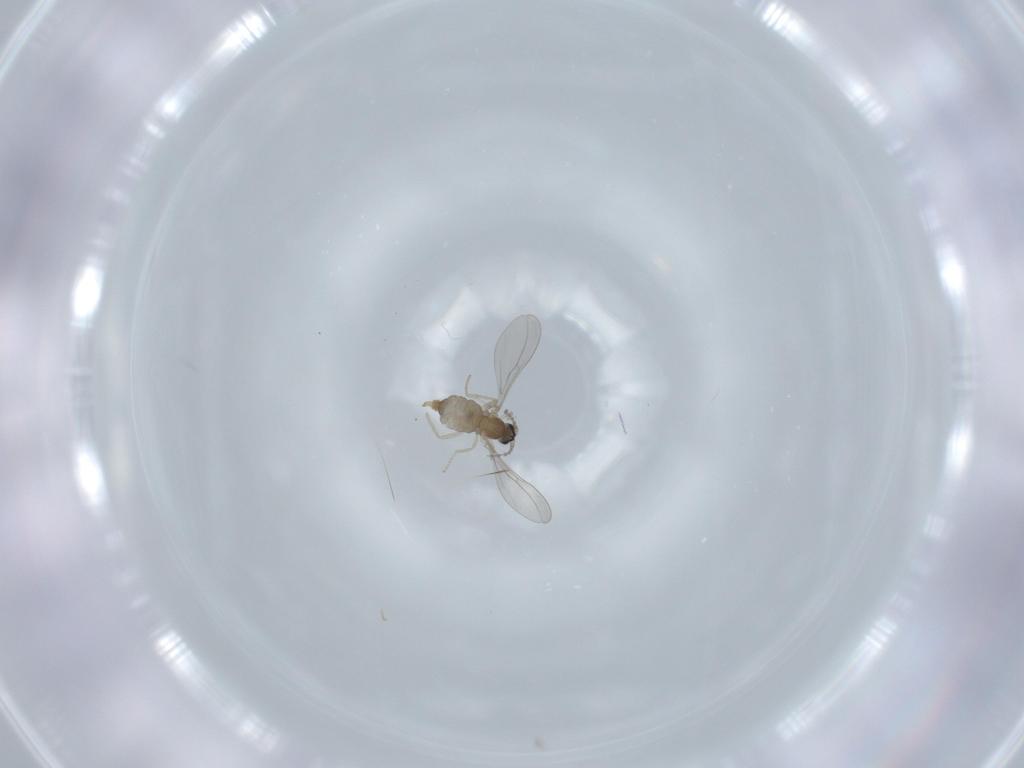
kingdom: Animalia
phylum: Arthropoda
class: Insecta
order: Diptera
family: Cecidomyiidae
